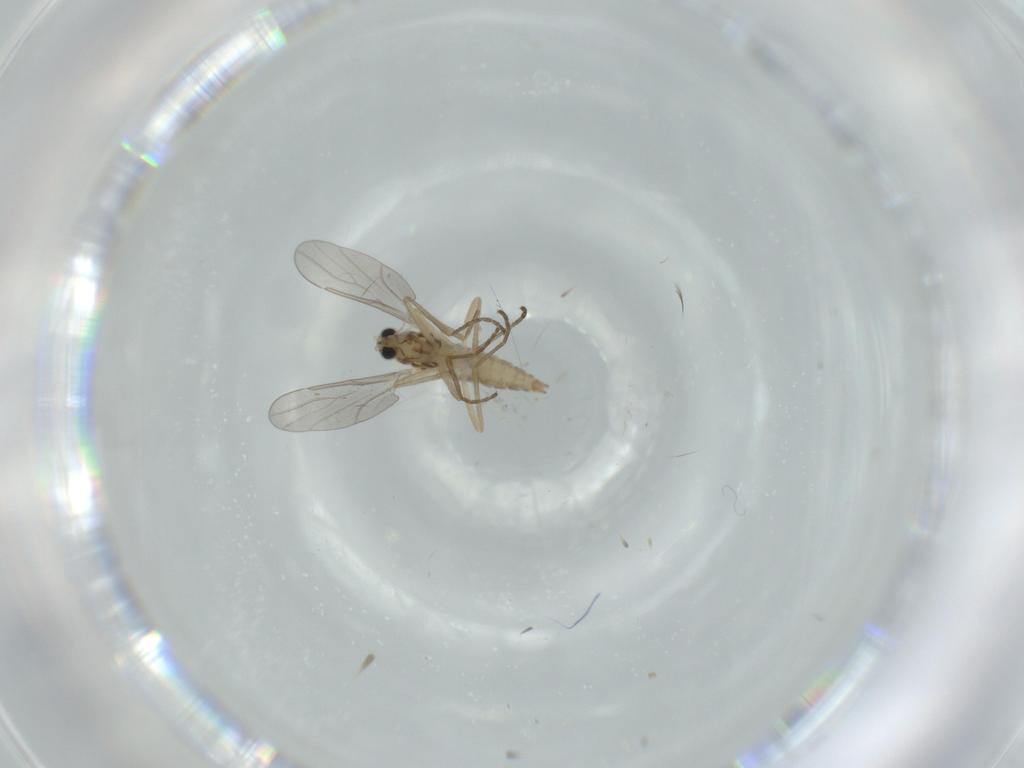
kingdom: Animalia
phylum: Arthropoda
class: Insecta
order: Diptera
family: Cecidomyiidae
